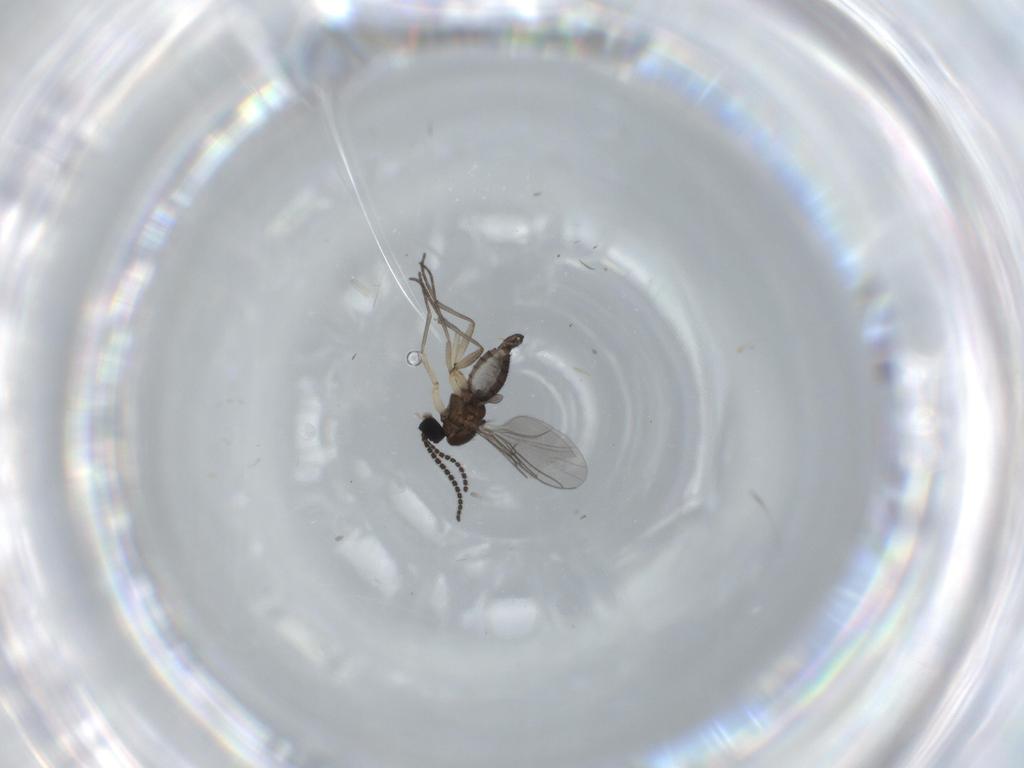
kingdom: Animalia
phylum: Arthropoda
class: Insecta
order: Diptera
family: Sciaridae
